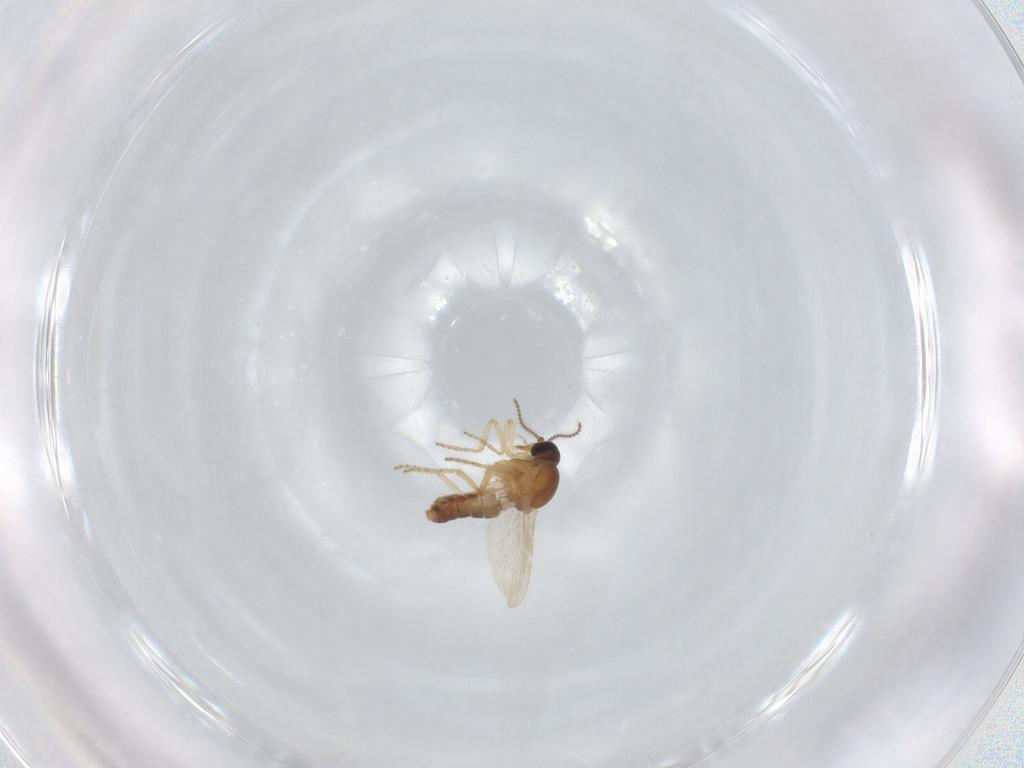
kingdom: Animalia
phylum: Arthropoda
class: Insecta
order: Diptera
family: Ceratopogonidae
